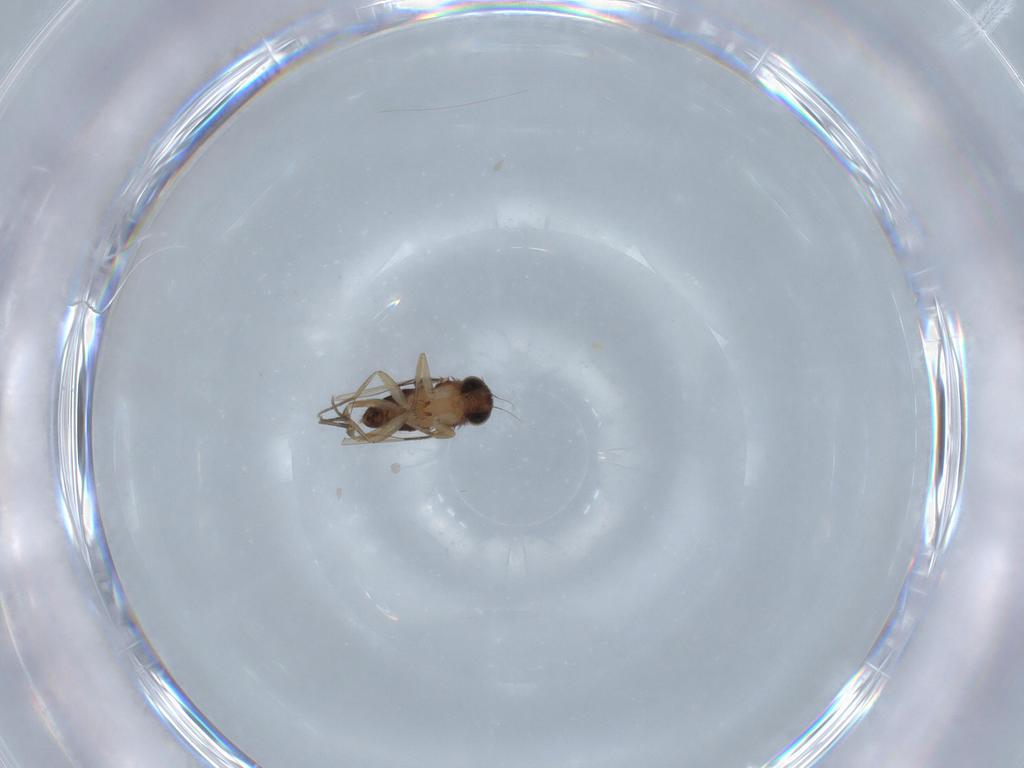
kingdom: Animalia
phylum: Arthropoda
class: Insecta
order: Diptera
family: Phoridae
